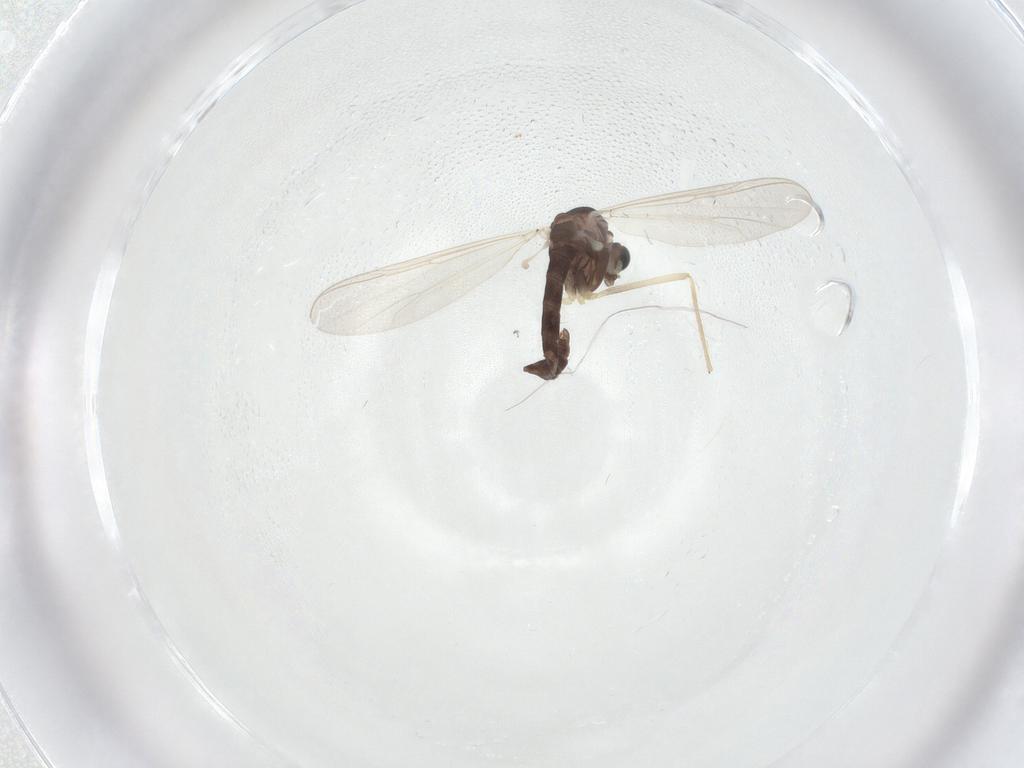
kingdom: Animalia
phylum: Arthropoda
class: Insecta
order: Diptera
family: Chironomidae
